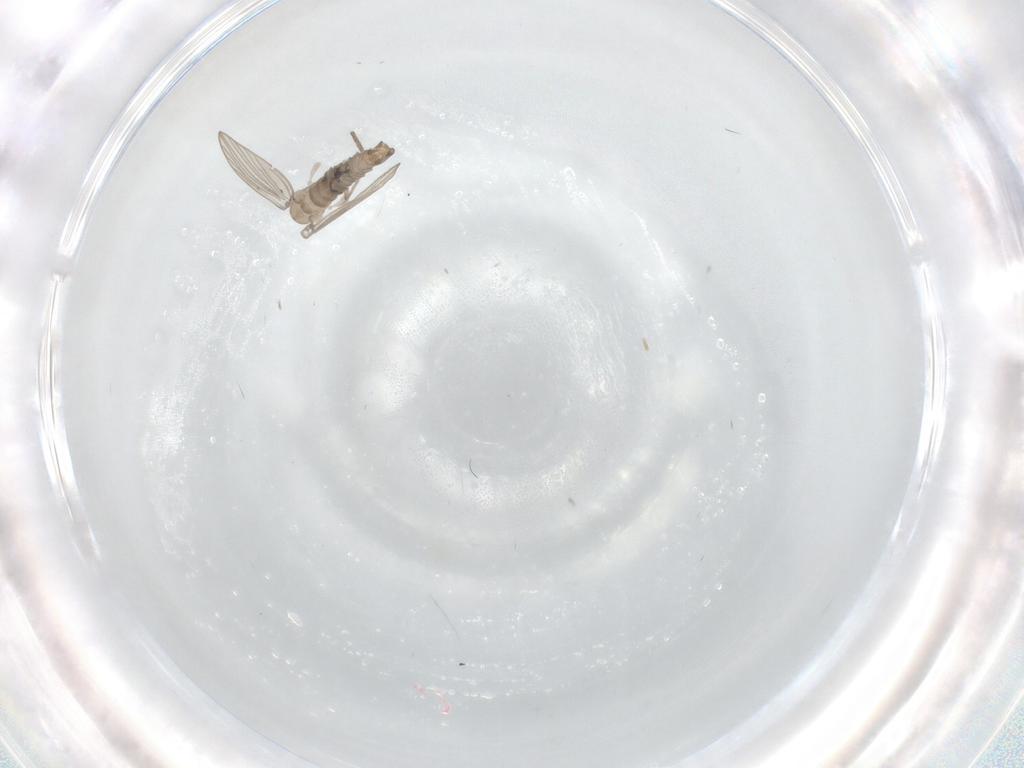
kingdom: Animalia
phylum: Arthropoda
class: Insecta
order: Diptera
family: Psychodidae
